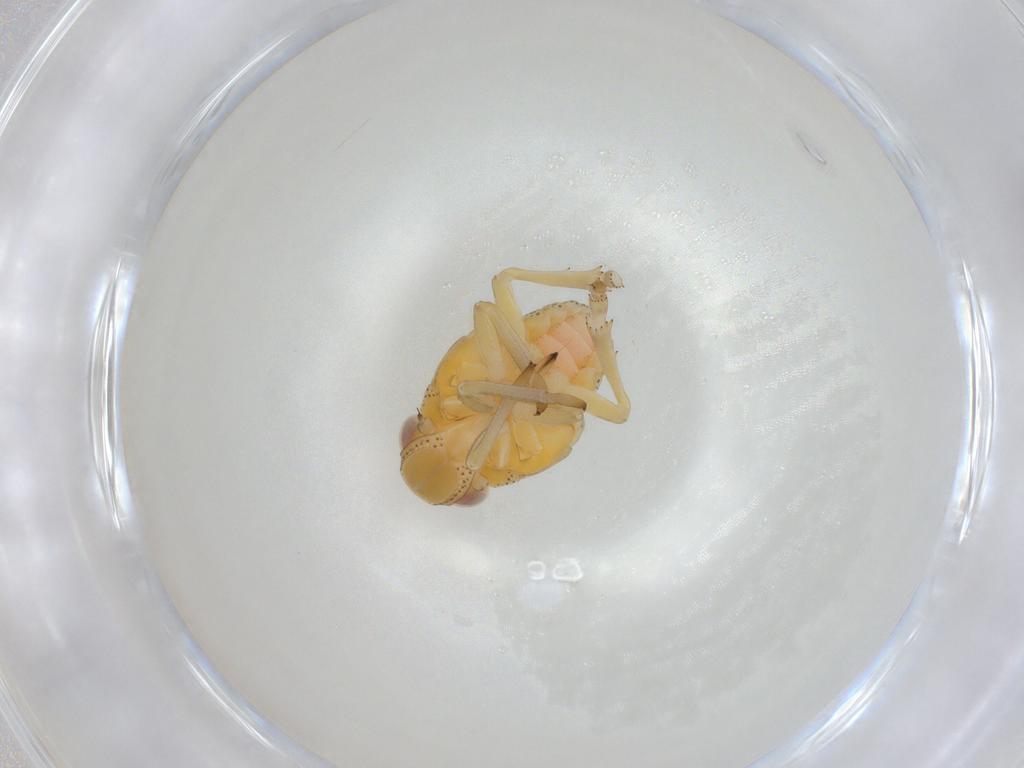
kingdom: Animalia
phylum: Arthropoda
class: Insecta
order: Hemiptera
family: Tropiduchidae
